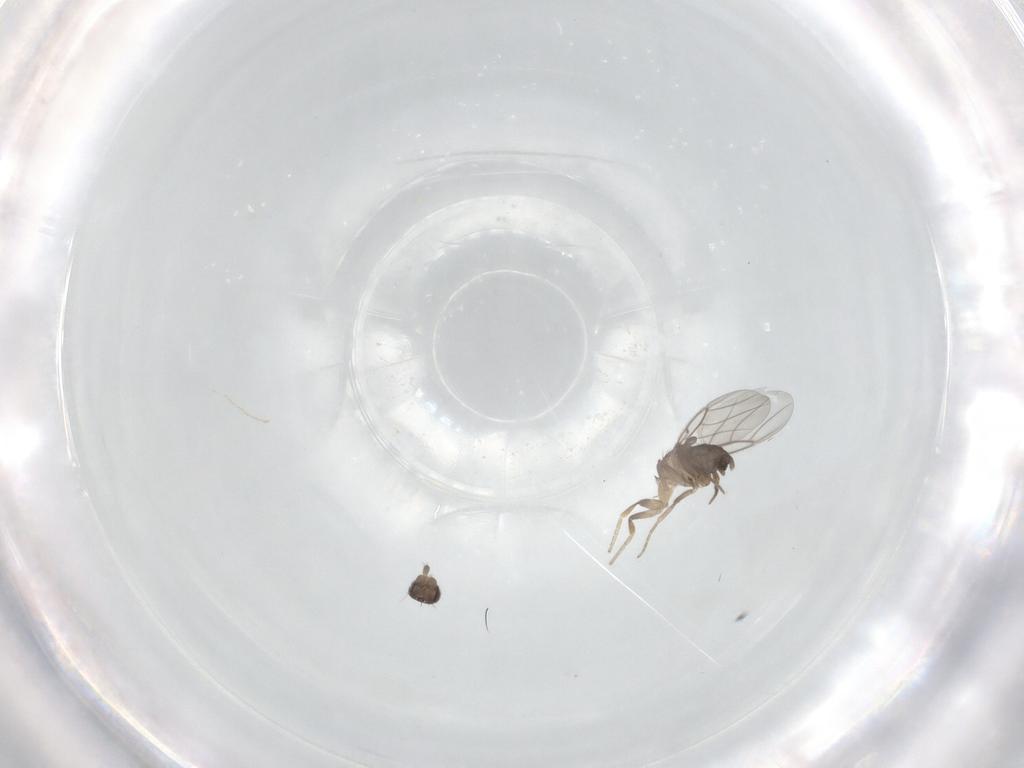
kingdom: Animalia
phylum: Arthropoda
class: Insecta
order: Diptera
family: Phoridae
